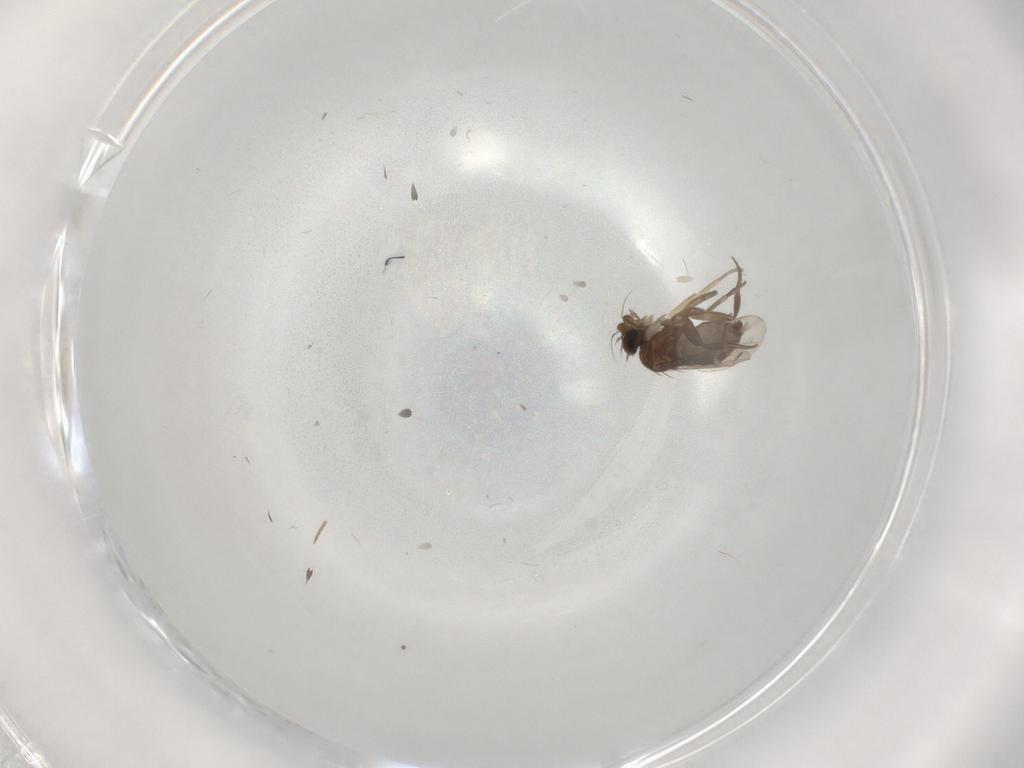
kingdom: Animalia
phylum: Arthropoda
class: Insecta
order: Diptera
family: Phoridae
